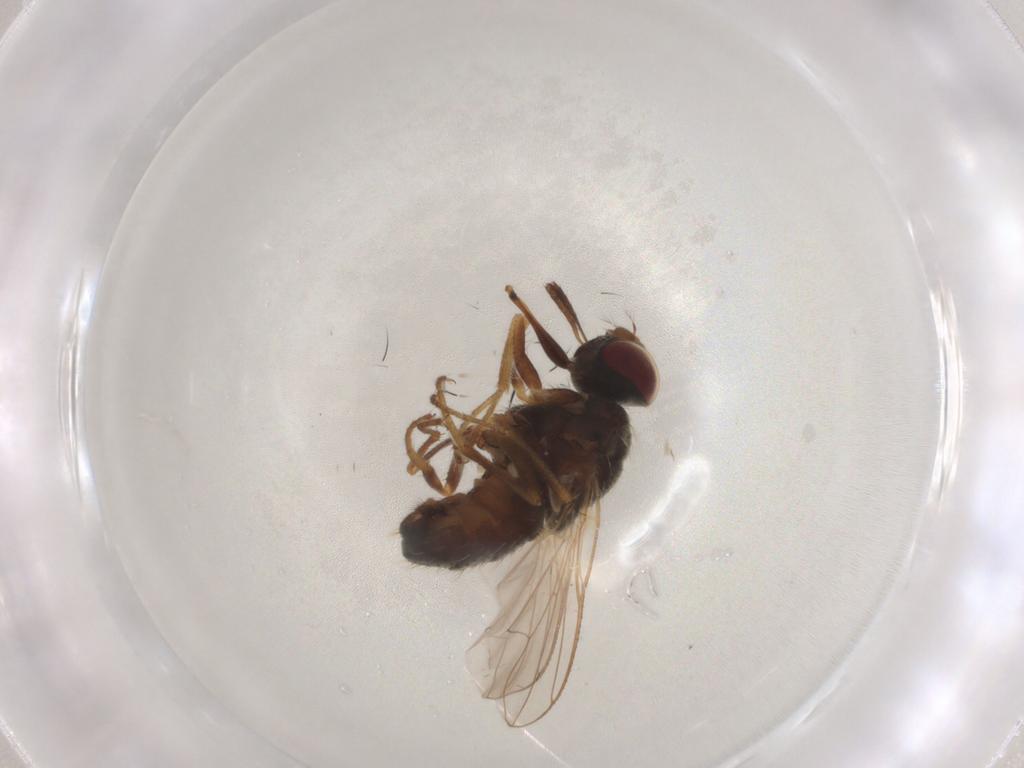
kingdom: Animalia
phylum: Arthropoda
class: Insecta
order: Diptera
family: Muscidae
